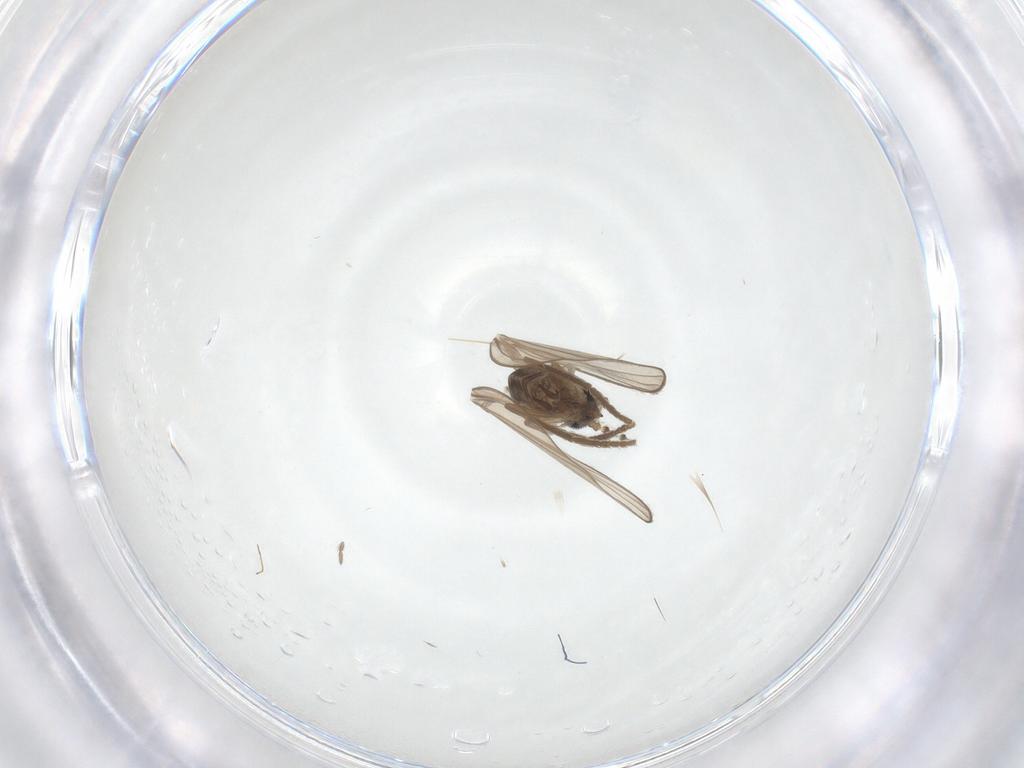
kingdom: Animalia
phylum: Arthropoda
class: Insecta
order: Diptera
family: Psychodidae
